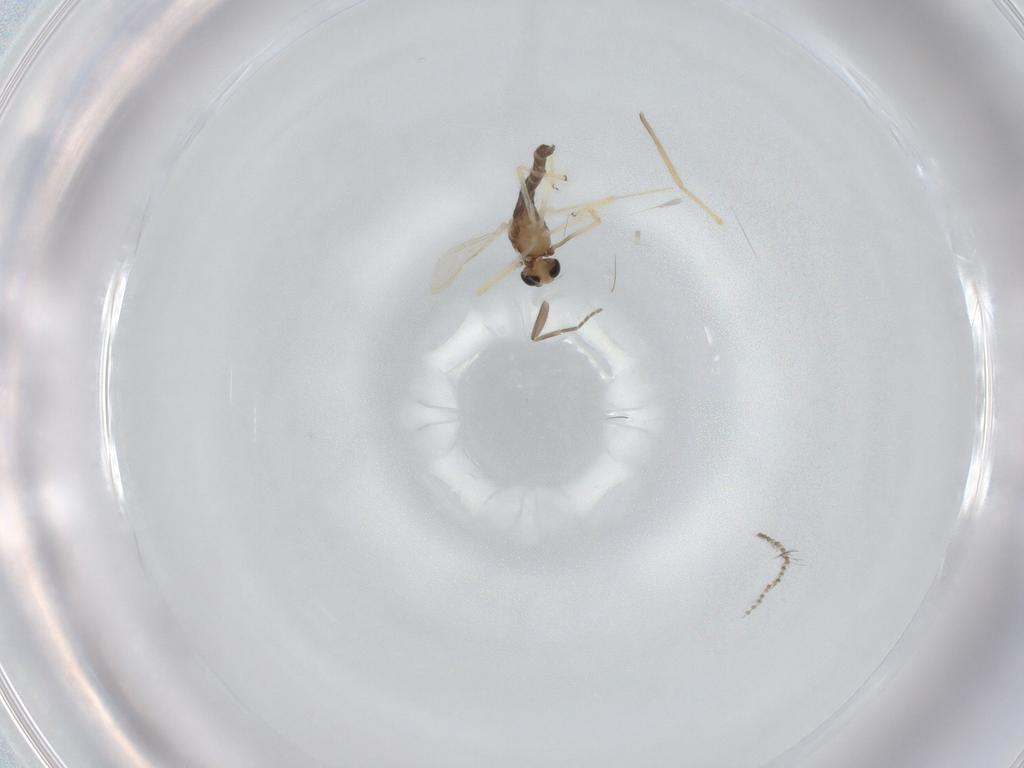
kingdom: Animalia
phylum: Arthropoda
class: Insecta
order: Diptera
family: Chironomidae
